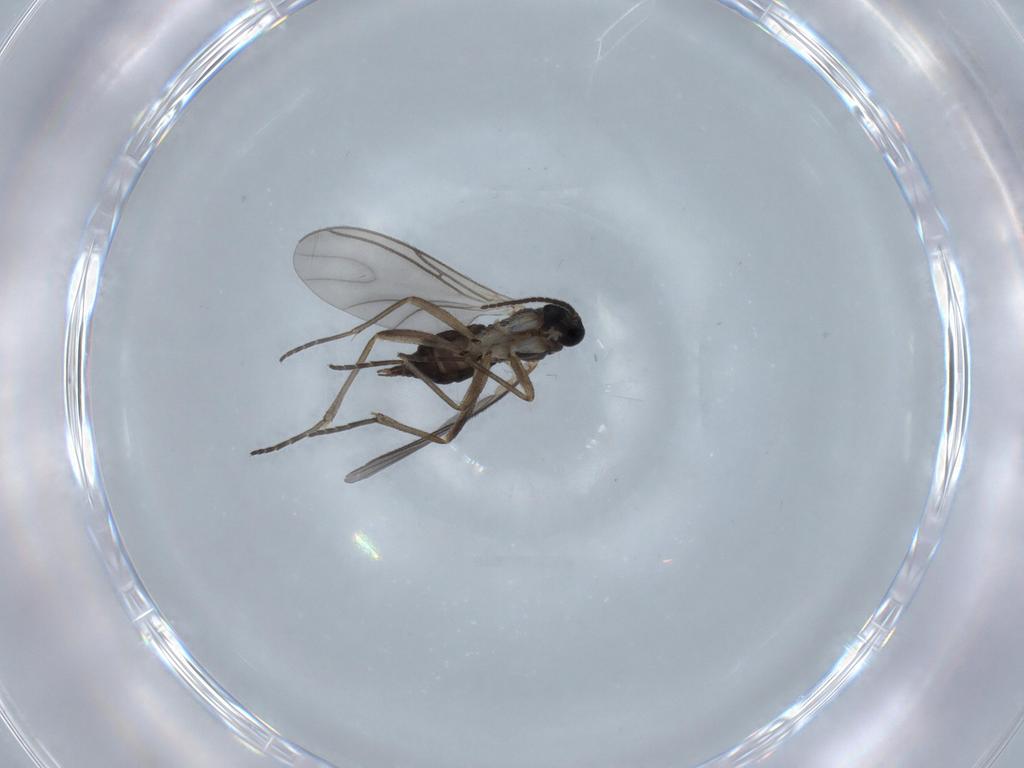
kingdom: Animalia
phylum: Arthropoda
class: Insecta
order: Diptera
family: Sciaridae
